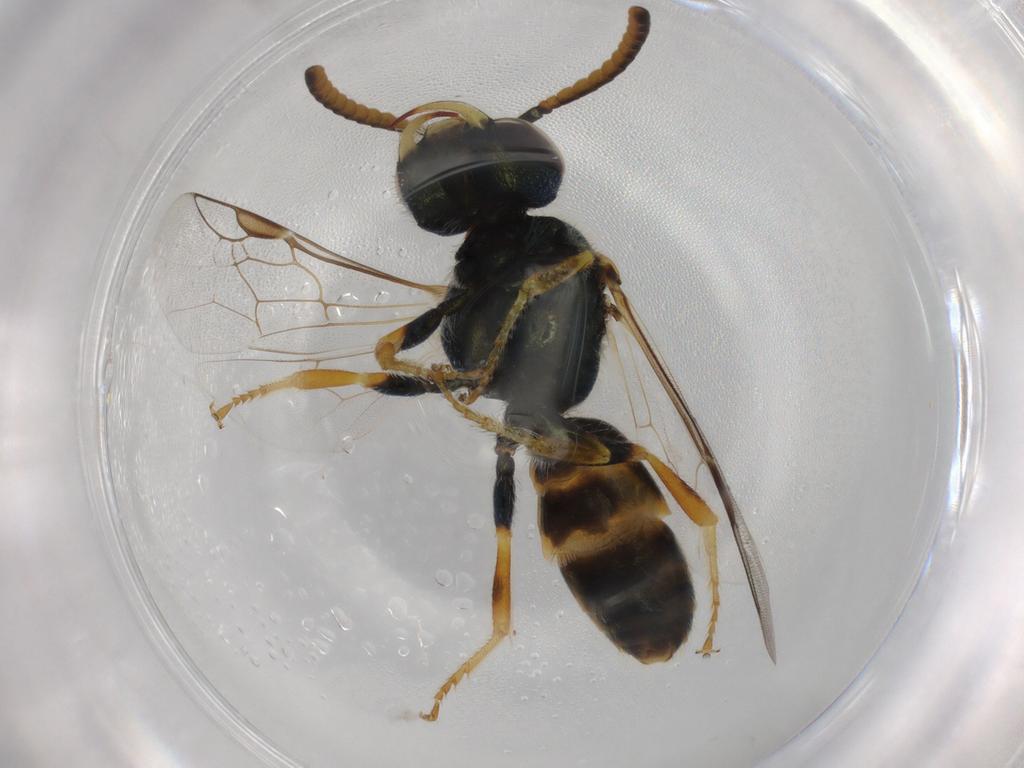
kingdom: Animalia
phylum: Arthropoda
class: Insecta
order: Hymenoptera
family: Halictidae
